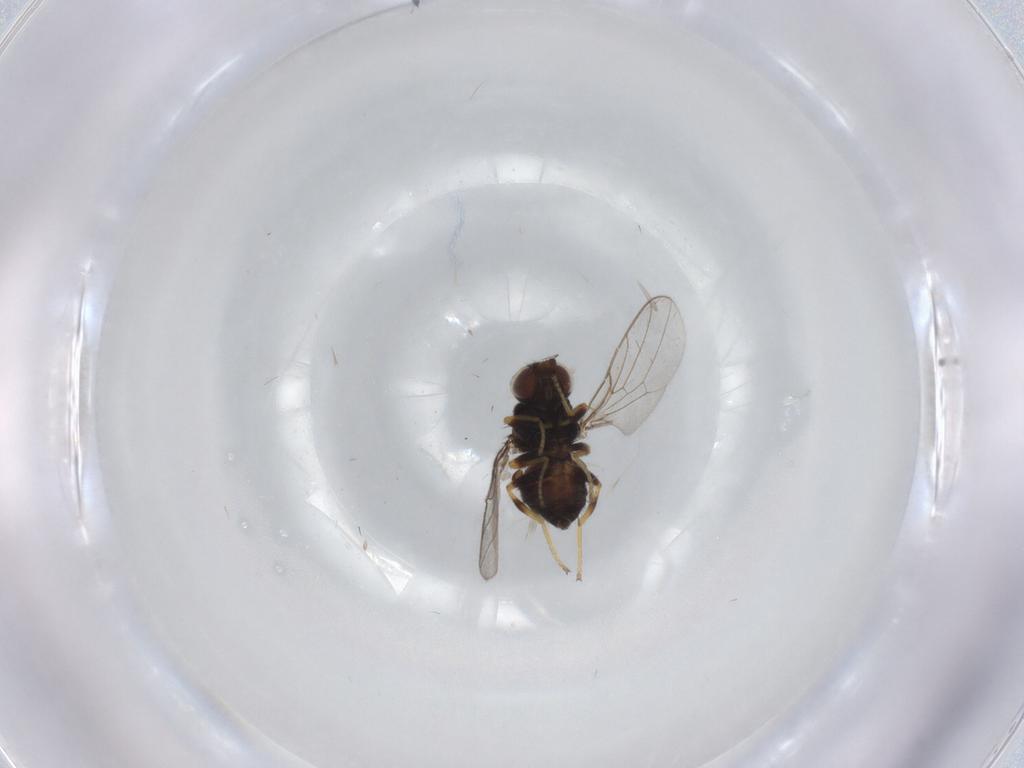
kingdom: Animalia
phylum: Arthropoda
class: Insecta
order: Diptera
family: Chloropidae
